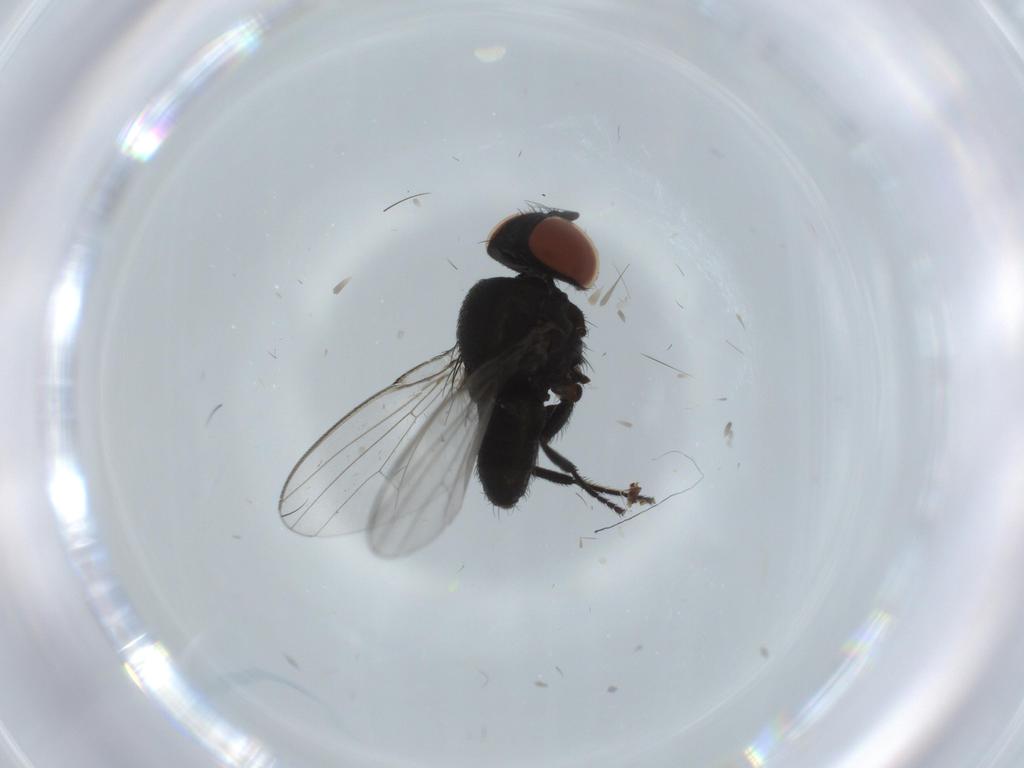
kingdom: Animalia
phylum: Arthropoda
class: Insecta
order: Diptera
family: Milichiidae
